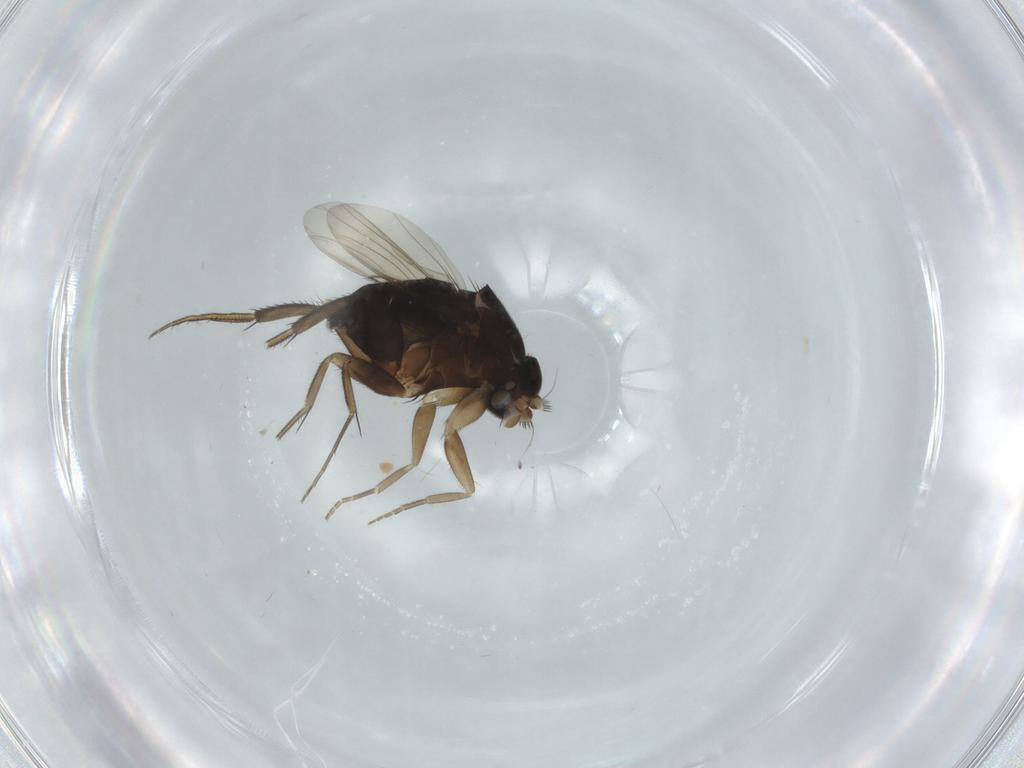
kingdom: Animalia
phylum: Arthropoda
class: Insecta
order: Diptera
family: Phoridae
